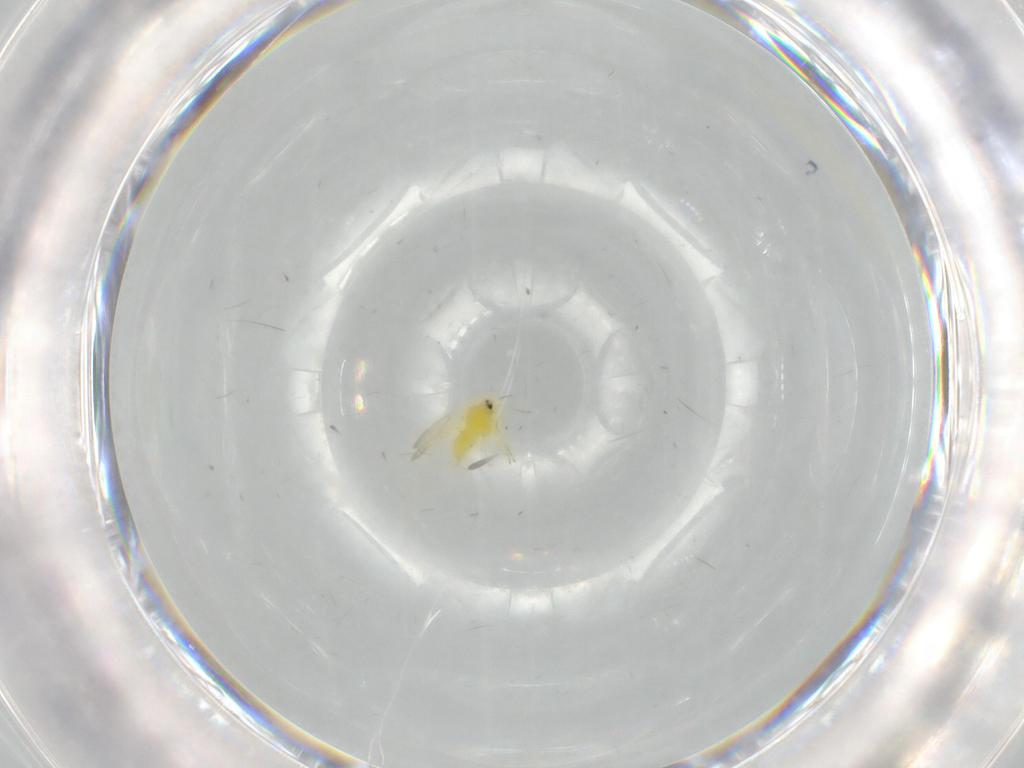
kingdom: Animalia
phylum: Arthropoda
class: Insecta
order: Hemiptera
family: Aleyrodidae
